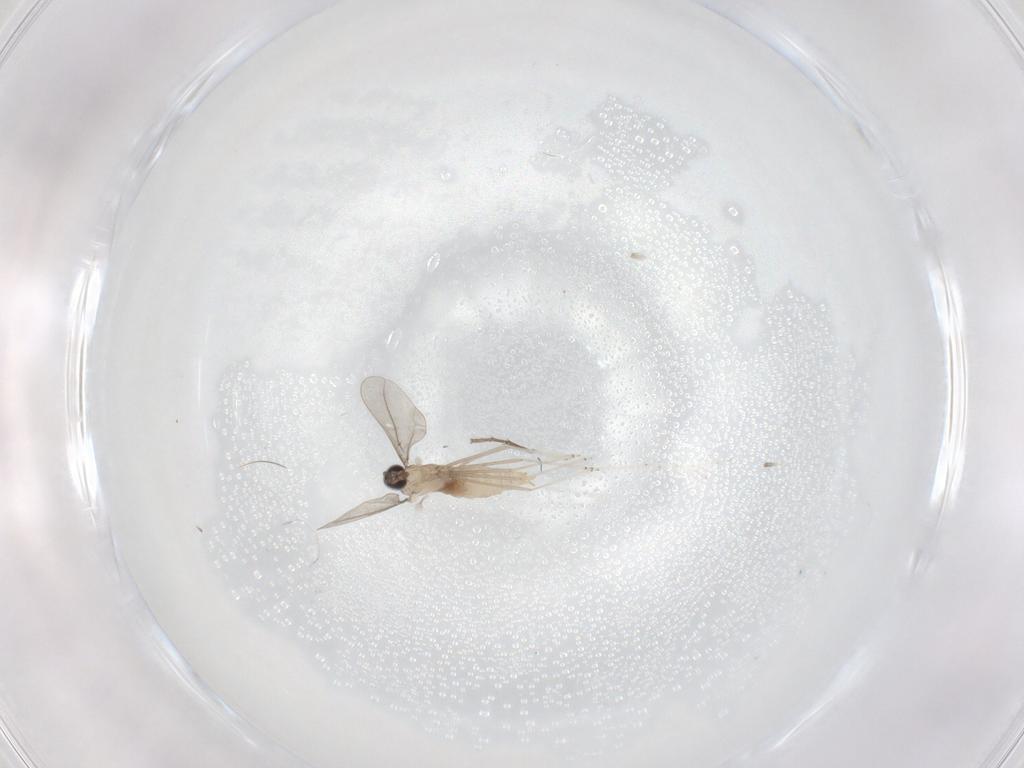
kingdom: Animalia
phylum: Arthropoda
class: Insecta
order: Diptera
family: Cecidomyiidae
